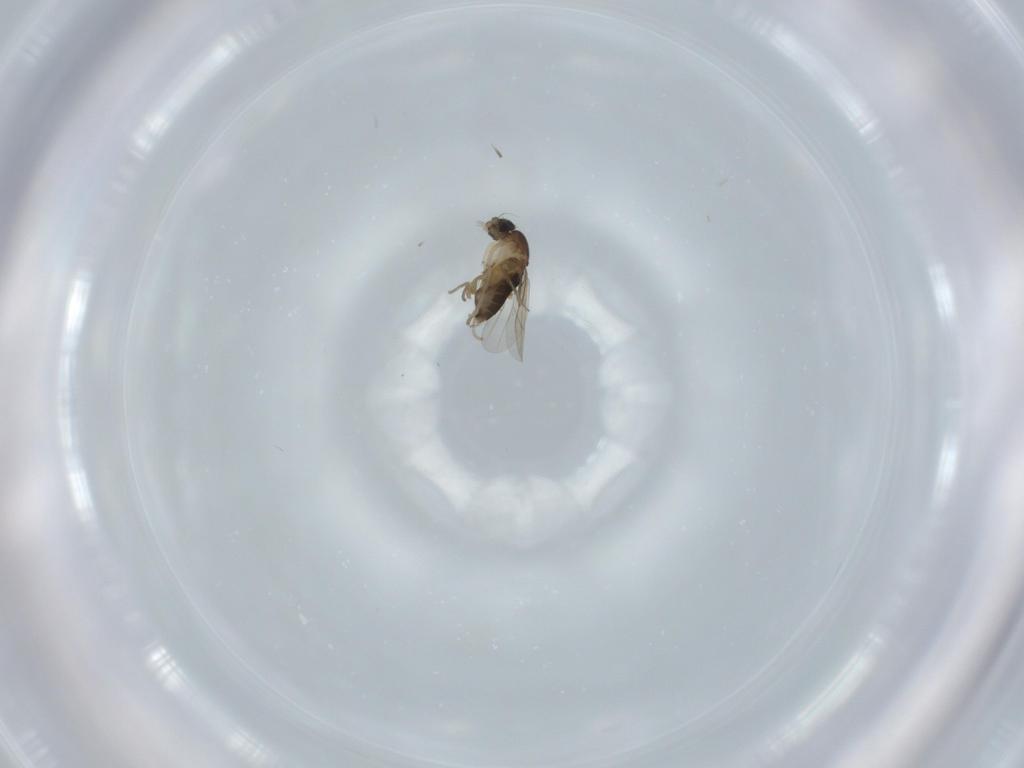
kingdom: Animalia
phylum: Arthropoda
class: Insecta
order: Diptera
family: Phoridae
